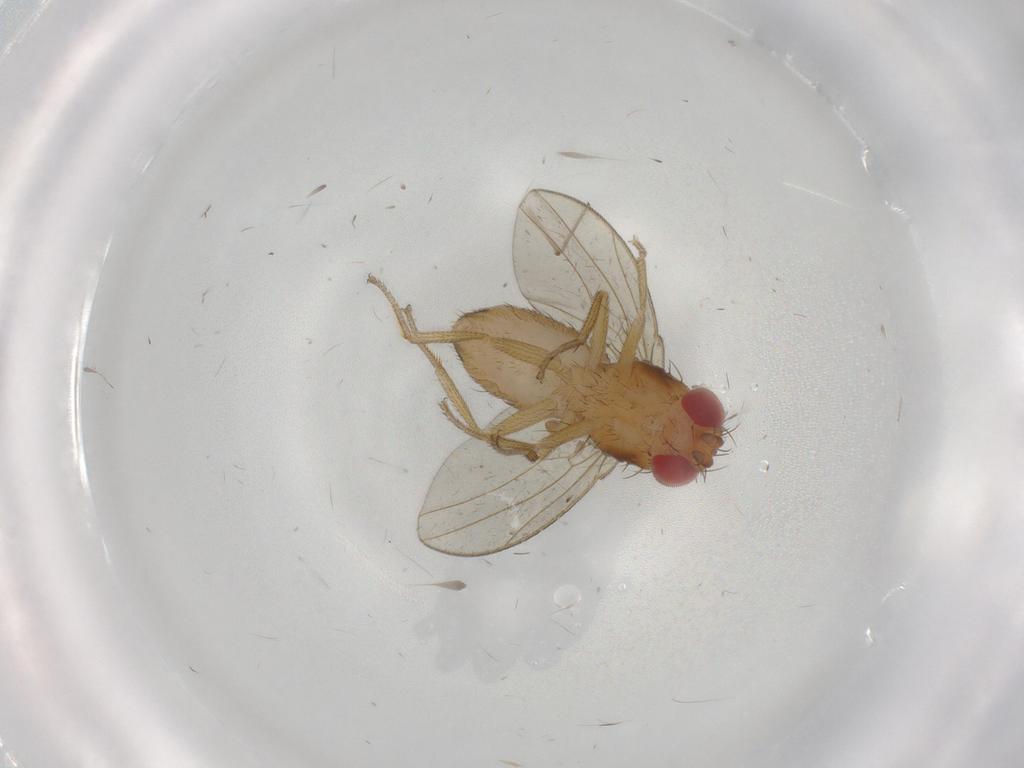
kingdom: Animalia
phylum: Arthropoda
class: Insecta
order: Diptera
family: Drosophilidae
